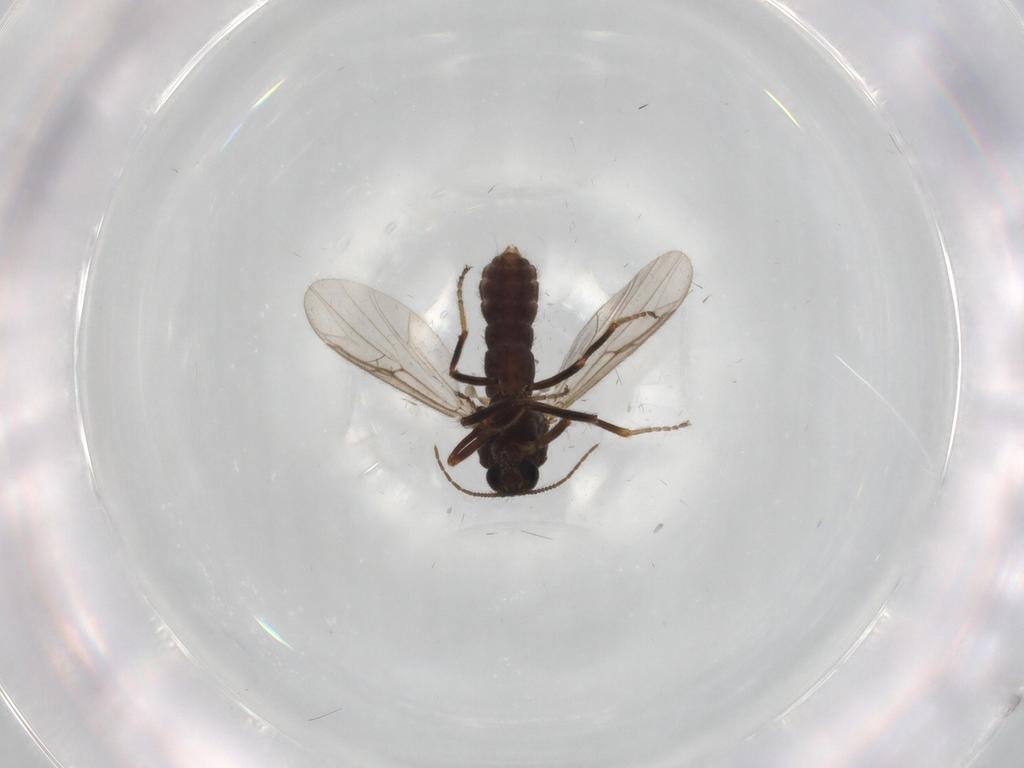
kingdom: Animalia
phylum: Arthropoda
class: Insecta
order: Diptera
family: Ceratopogonidae
